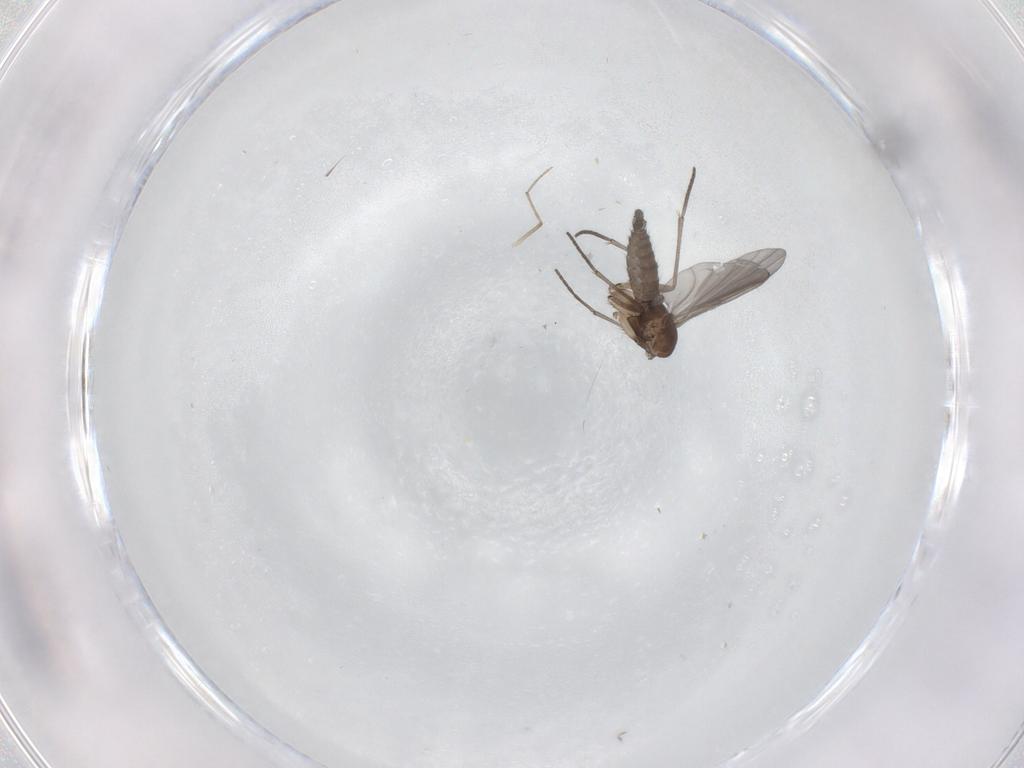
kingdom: Animalia
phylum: Arthropoda
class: Insecta
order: Diptera
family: Sciaridae
